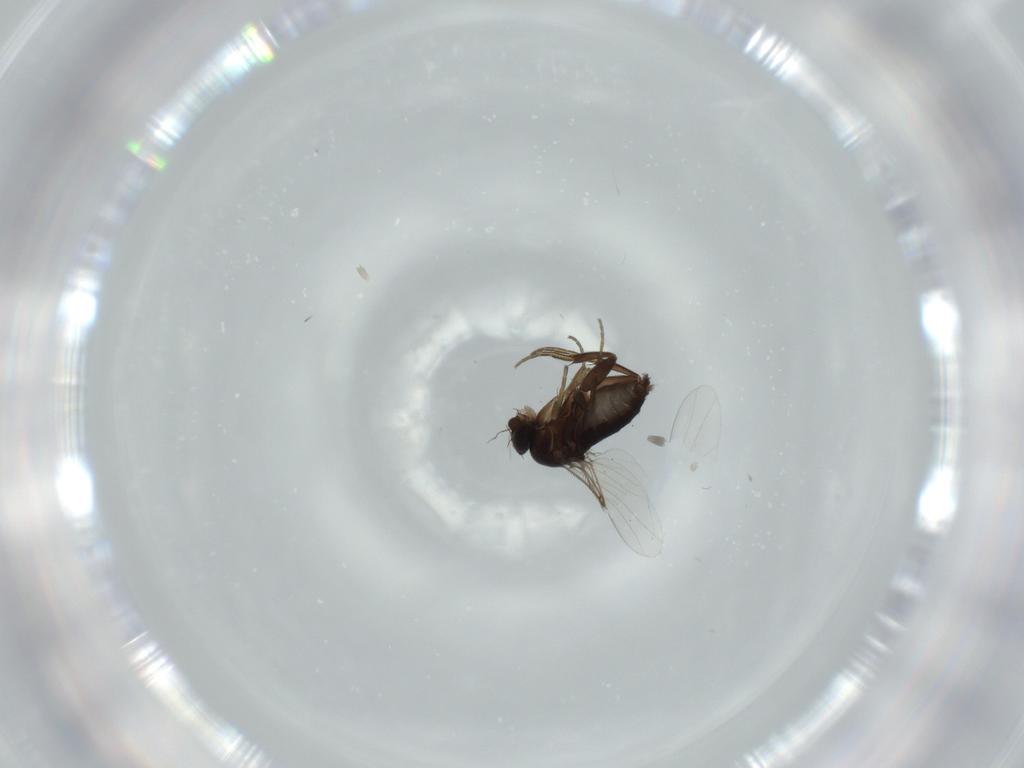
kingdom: Animalia
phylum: Arthropoda
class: Insecta
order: Diptera
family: Phoridae
